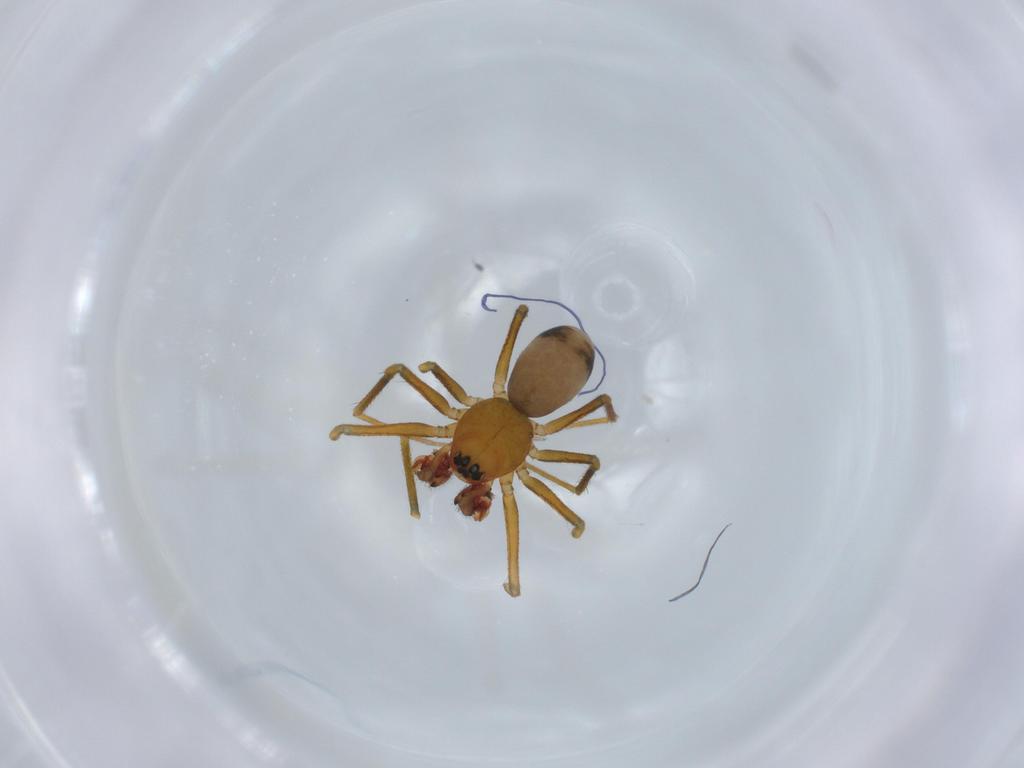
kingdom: Animalia
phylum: Arthropoda
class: Arachnida
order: Araneae
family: Linyphiidae
